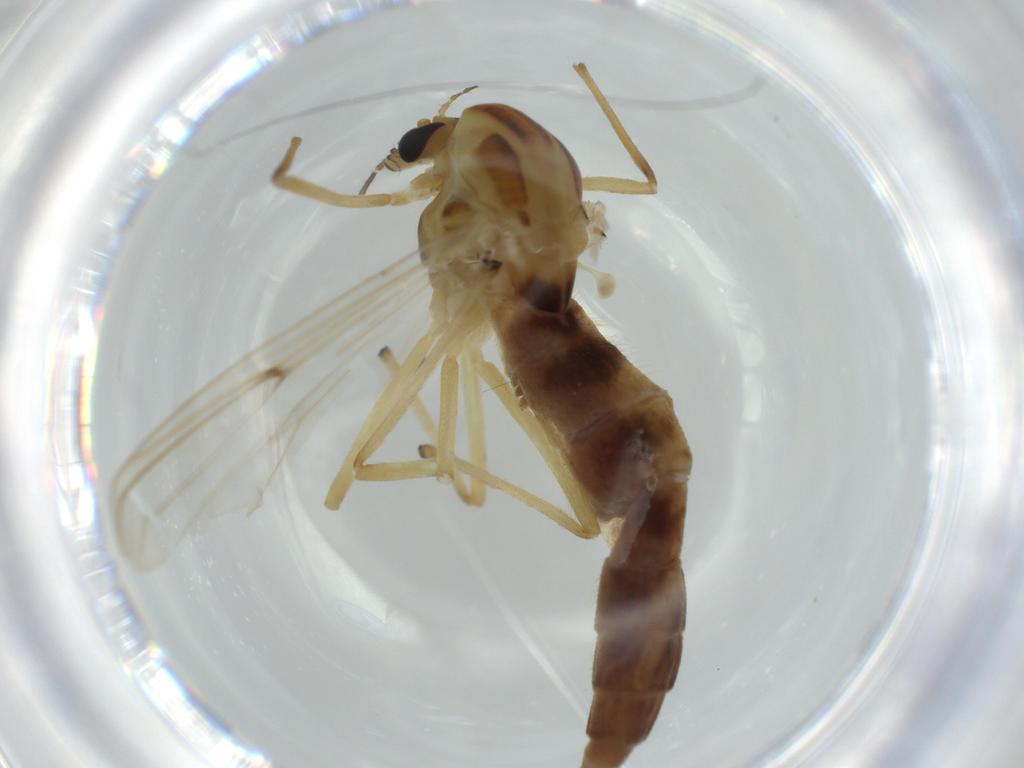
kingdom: Animalia
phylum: Arthropoda
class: Insecta
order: Diptera
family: Chironomidae
